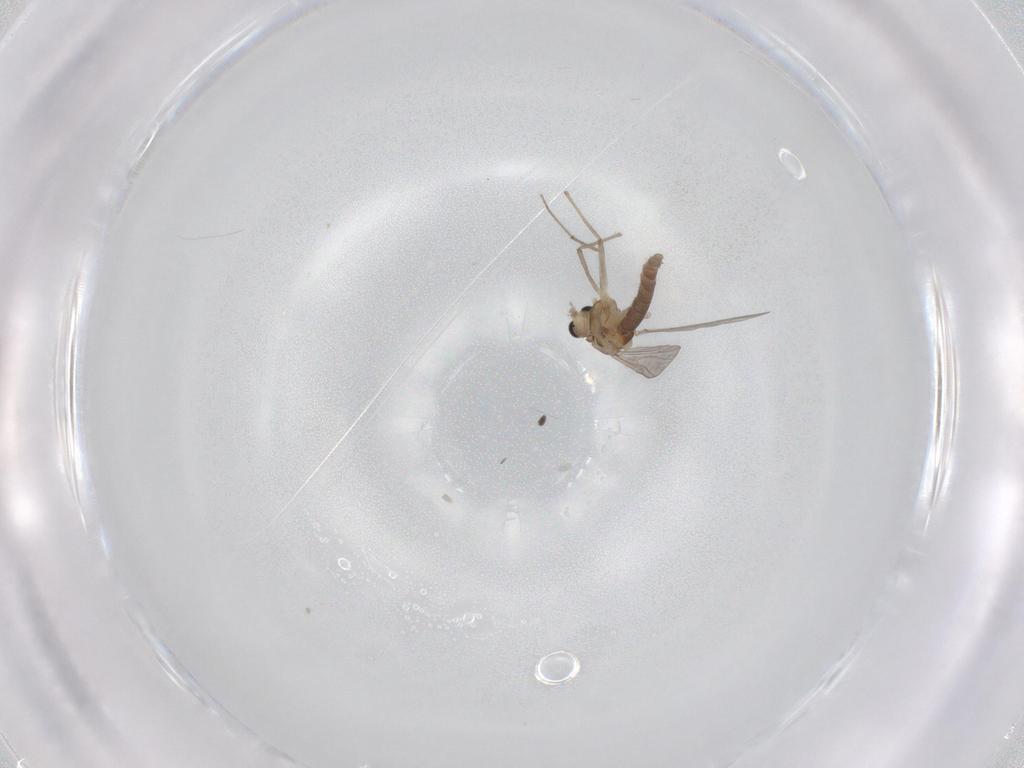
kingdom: Animalia
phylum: Arthropoda
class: Insecta
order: Diptera
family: Chironomidae
